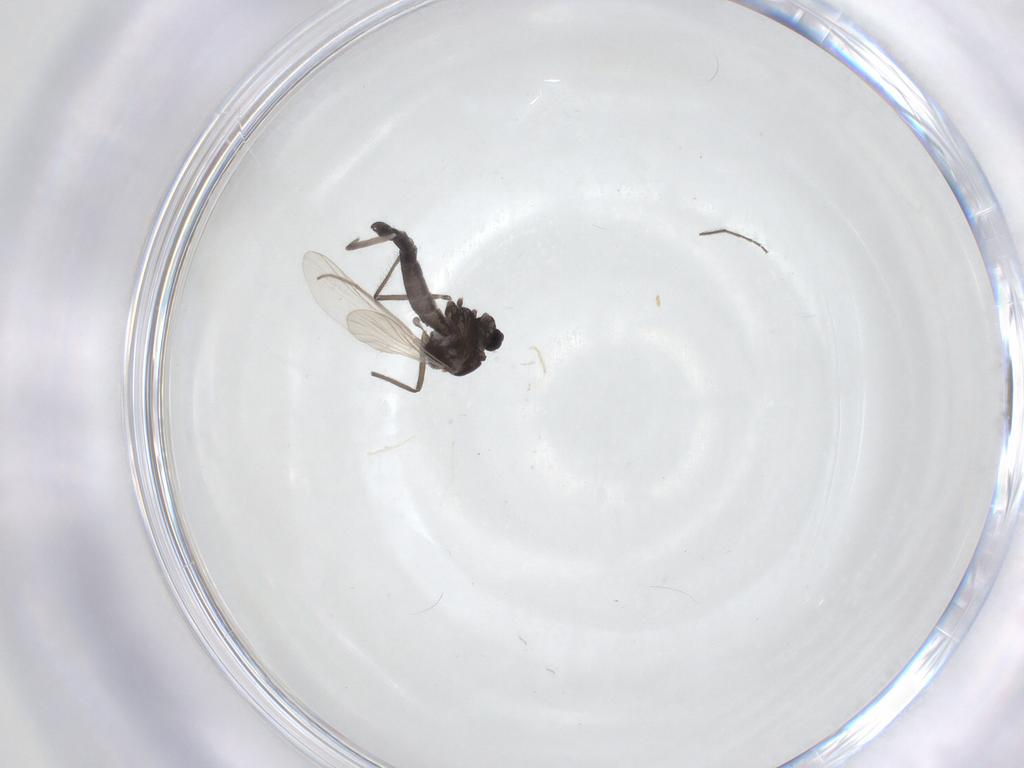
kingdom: Animalia
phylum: Arthropoda
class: Insecta
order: Diptera
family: Chironomidae
